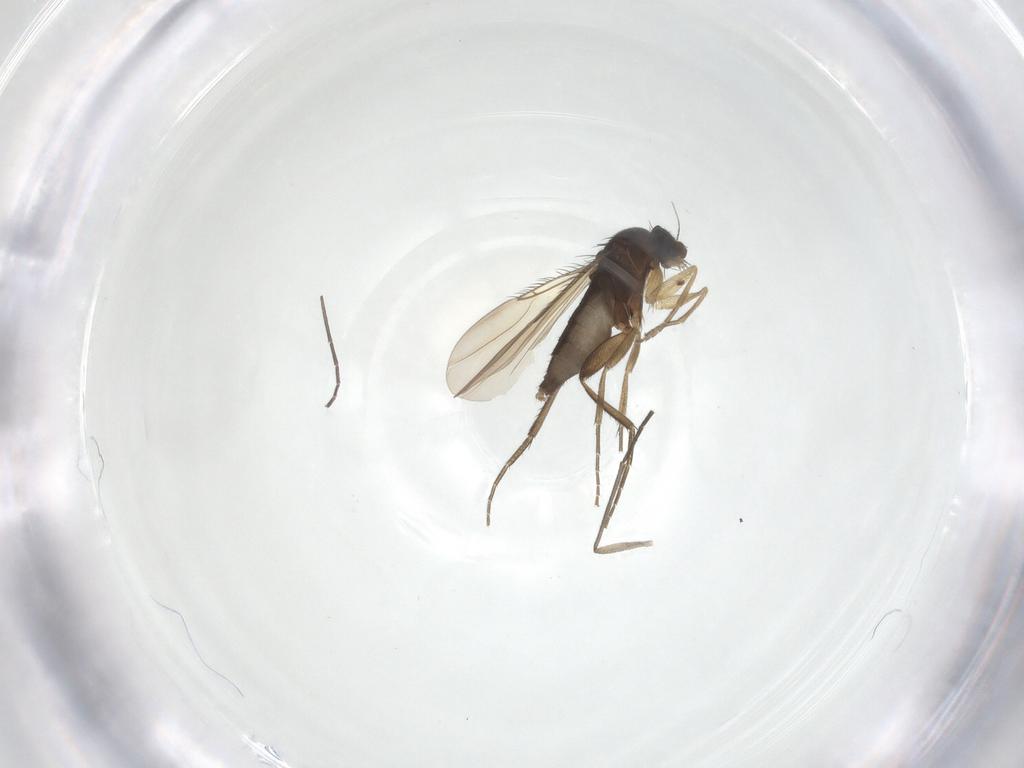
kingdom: Animalia
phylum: Arthropoda
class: Insecta
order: Diptera
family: Phoridae
